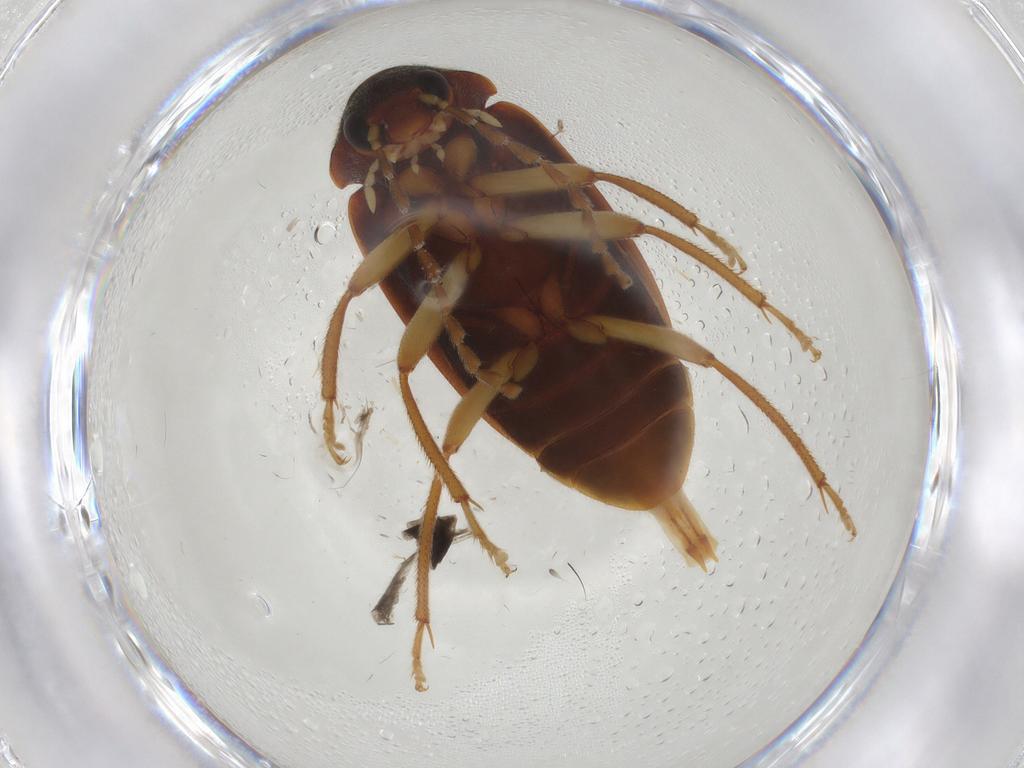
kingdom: Animalia
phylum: Arthropoda
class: Insecta
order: Coleoptera
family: Ptilodactylidae
